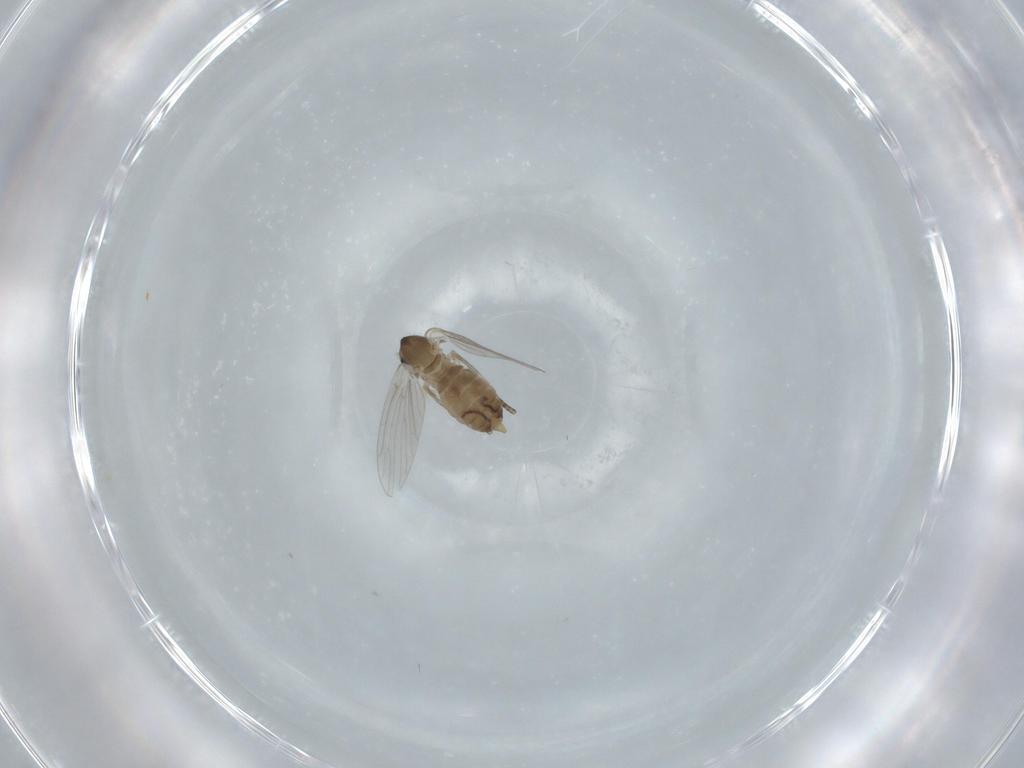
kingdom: Animalia
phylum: Arthropoda
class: Insecta
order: Diptera
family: Psychodidae
